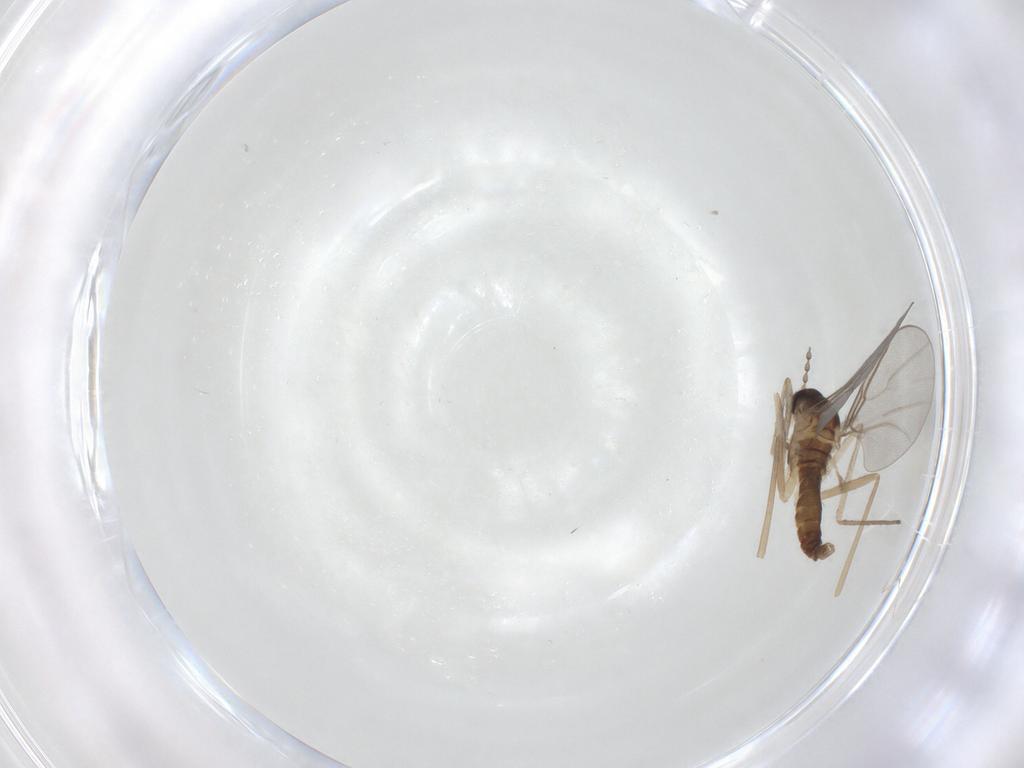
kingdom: Animalia
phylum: Arthropoda
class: Insecta
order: Diptera
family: Cecidomyiidae
